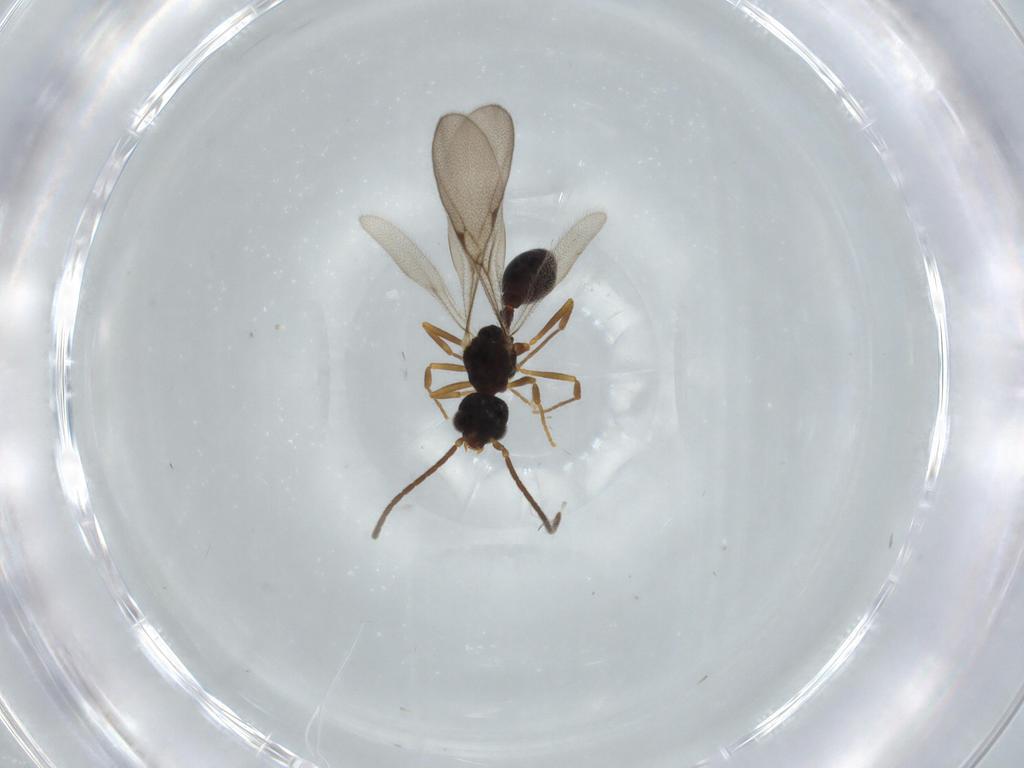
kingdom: Animalia
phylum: Arthropoda
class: Insecta
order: Hymenoptera
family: Formicidae
